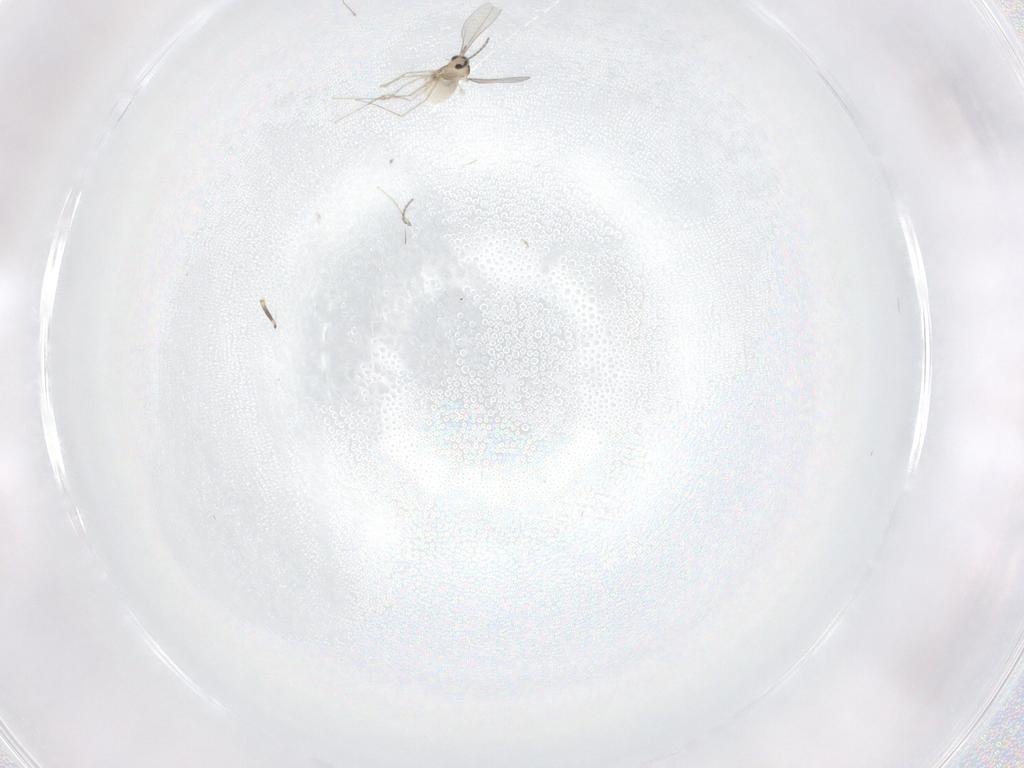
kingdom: Animalia
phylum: Arthropoda
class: Insecta
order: Diptera
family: Cecidomyiidae
